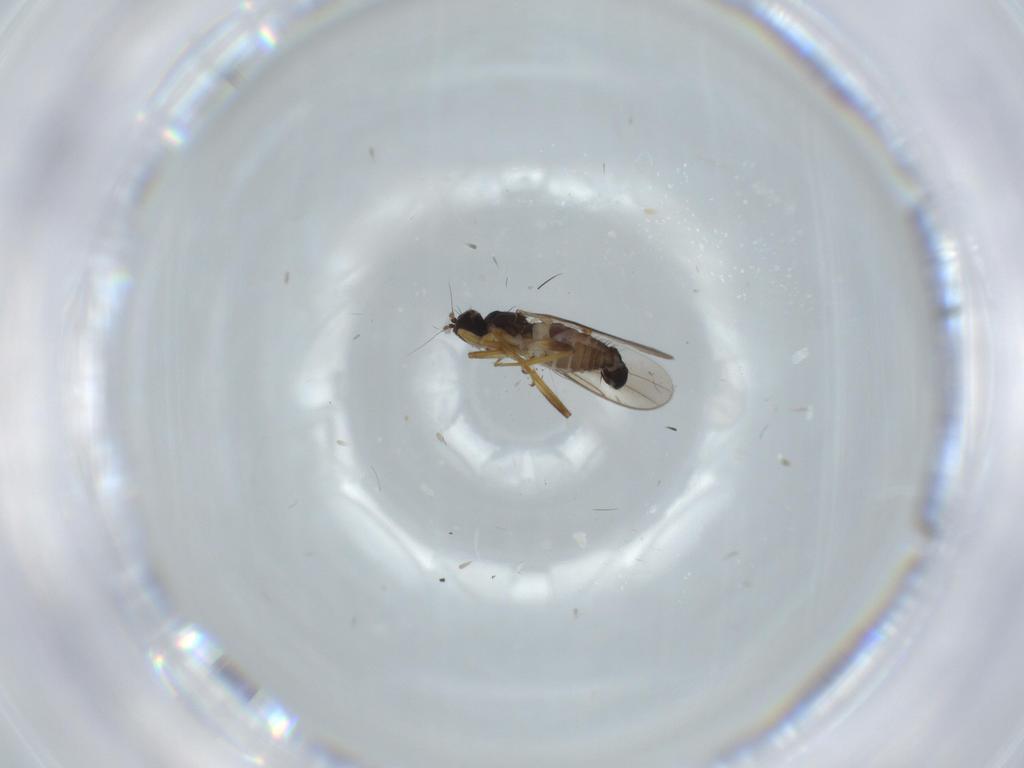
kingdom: Animalia
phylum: Arthropoda
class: Insecta
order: Diptera
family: Hybotidae
